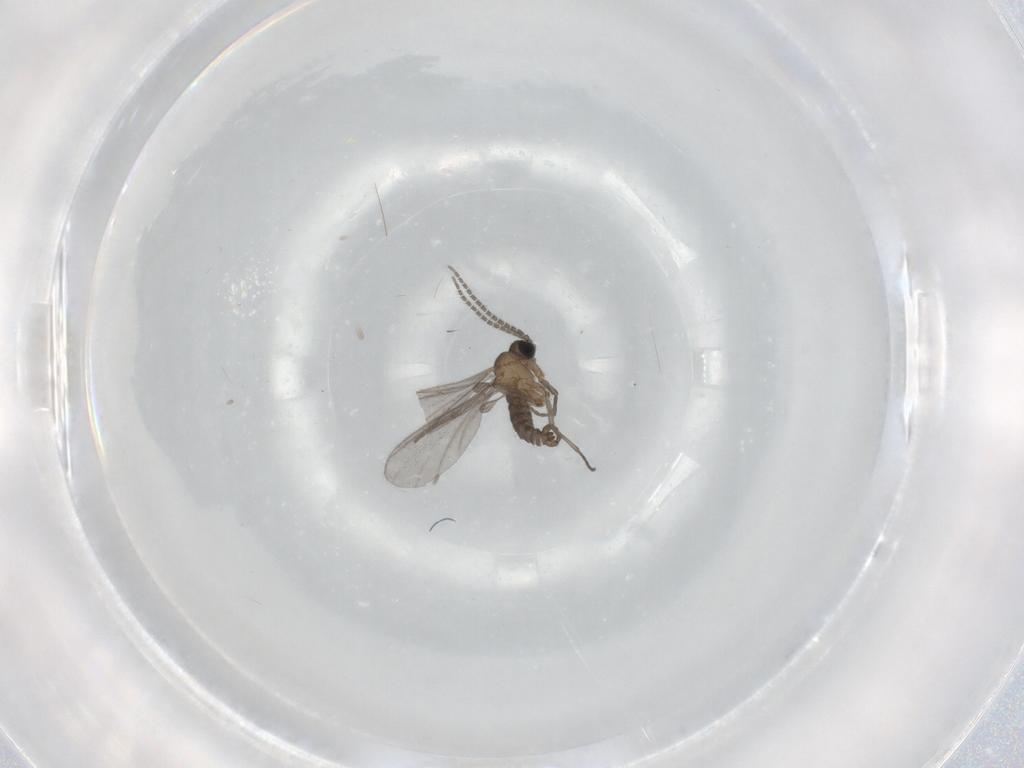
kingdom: Animalia
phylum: Arthropoda
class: Insecta
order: Diptera
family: Sciaridae
